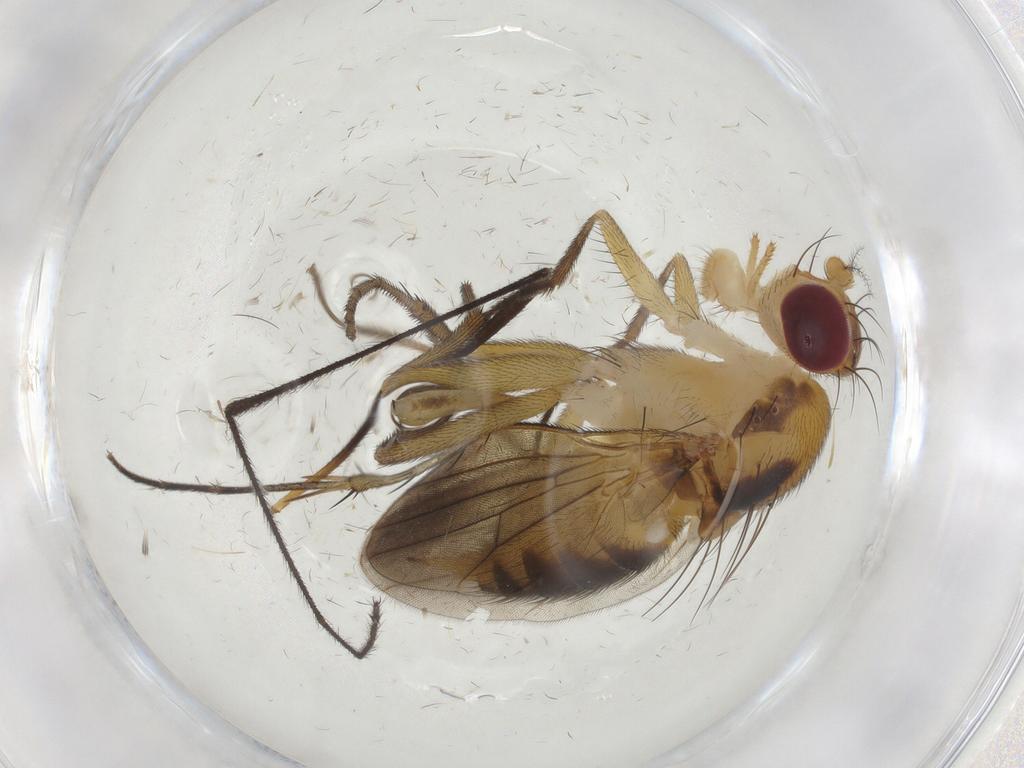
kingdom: Animalia
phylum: Arthropoda
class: Insecta
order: Diptera
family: Clusiidae
